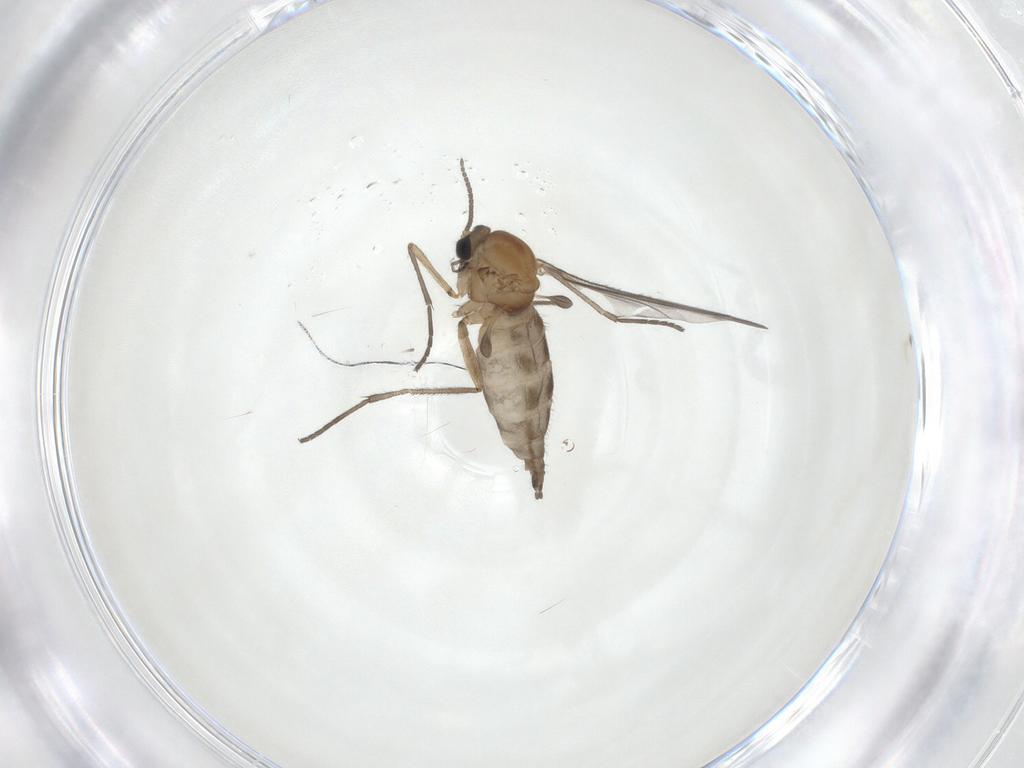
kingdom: Animalia
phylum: Arthropoda
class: Insecta
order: Diptera
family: Sciaridae
